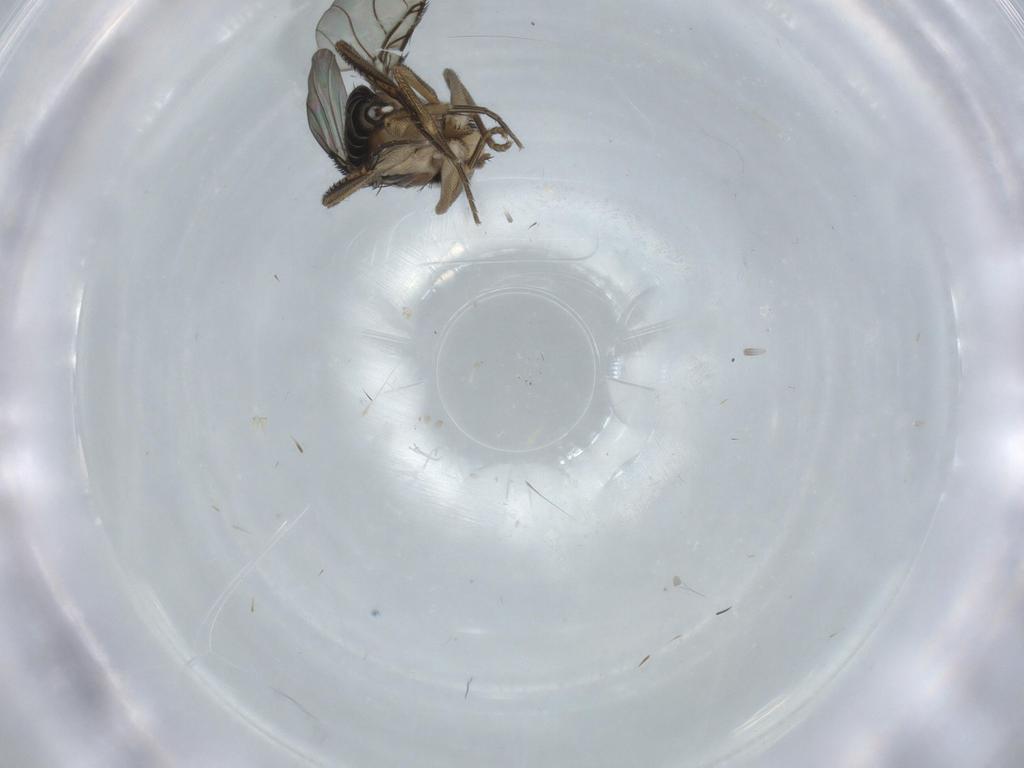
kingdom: Animalia
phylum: Arthropoda
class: Insecta
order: Diptera
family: Phoridae
